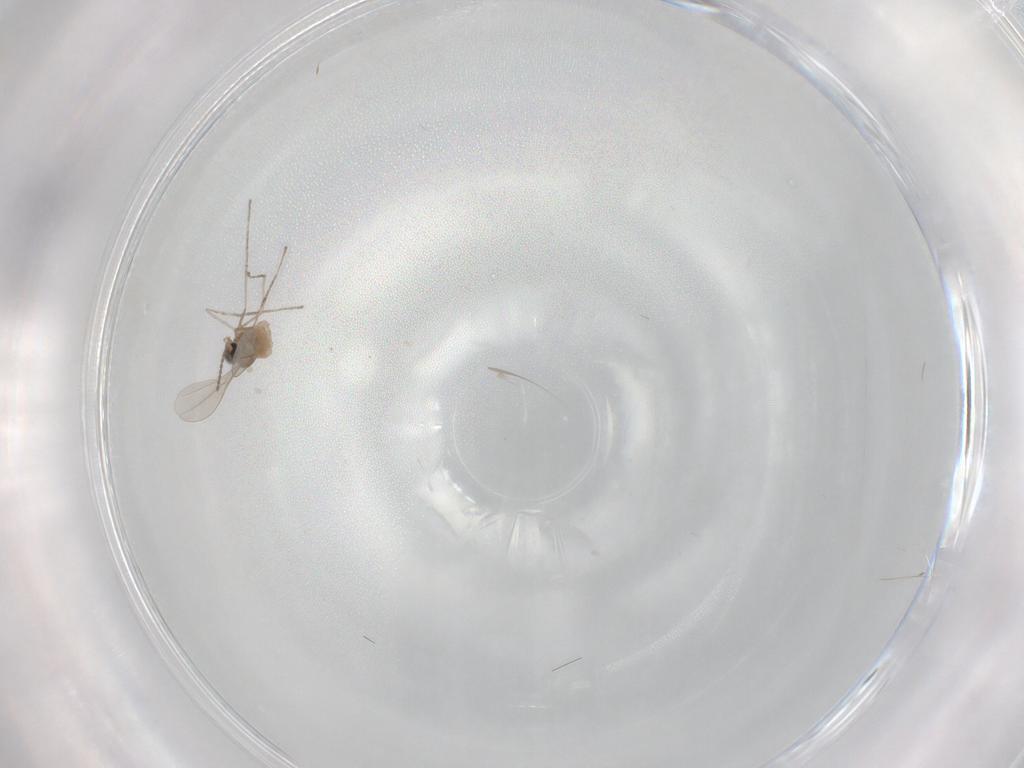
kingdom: Animalia
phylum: Arthropoda
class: Insecta
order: Diptera
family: Cecidomyiidae
